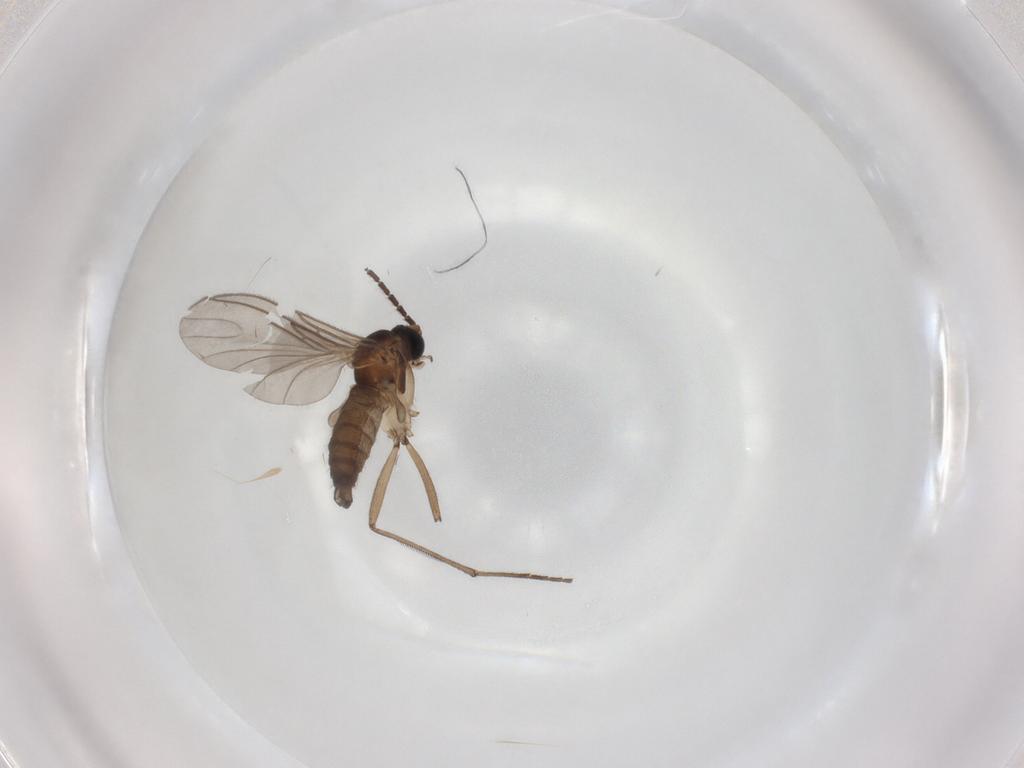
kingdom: Animalia
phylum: Arthropoda
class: Insecta
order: Diptera
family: Sciaridae
